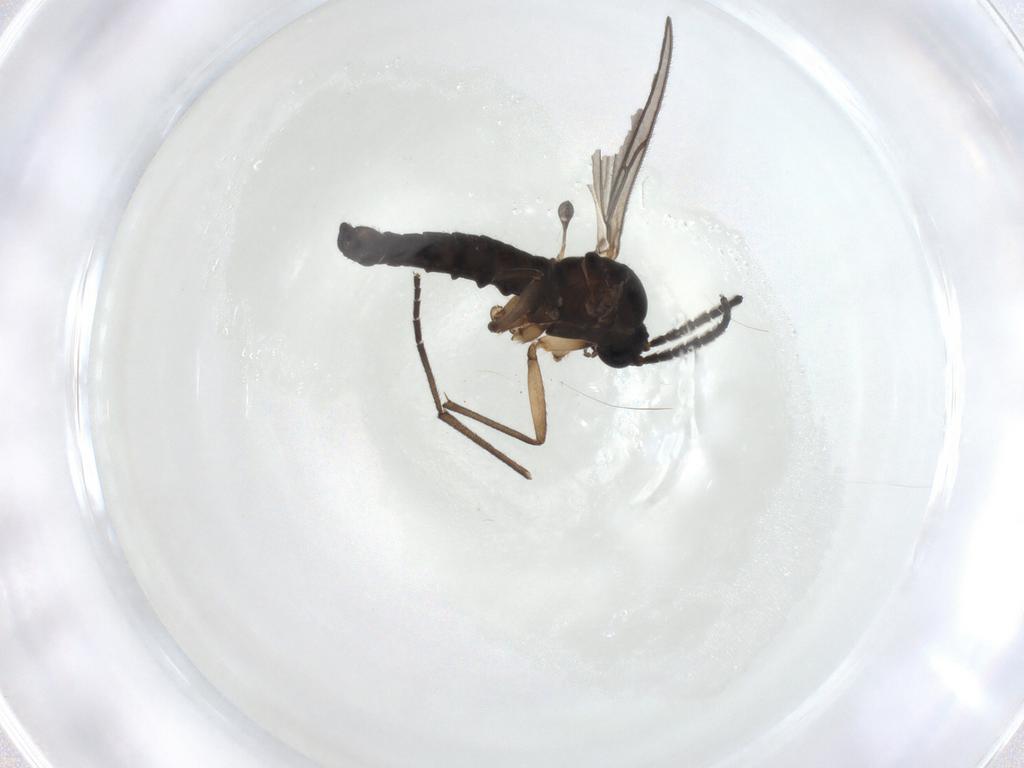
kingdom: Animalia
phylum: Arthropoda
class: Insecta
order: Diptera
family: Sciaridae
